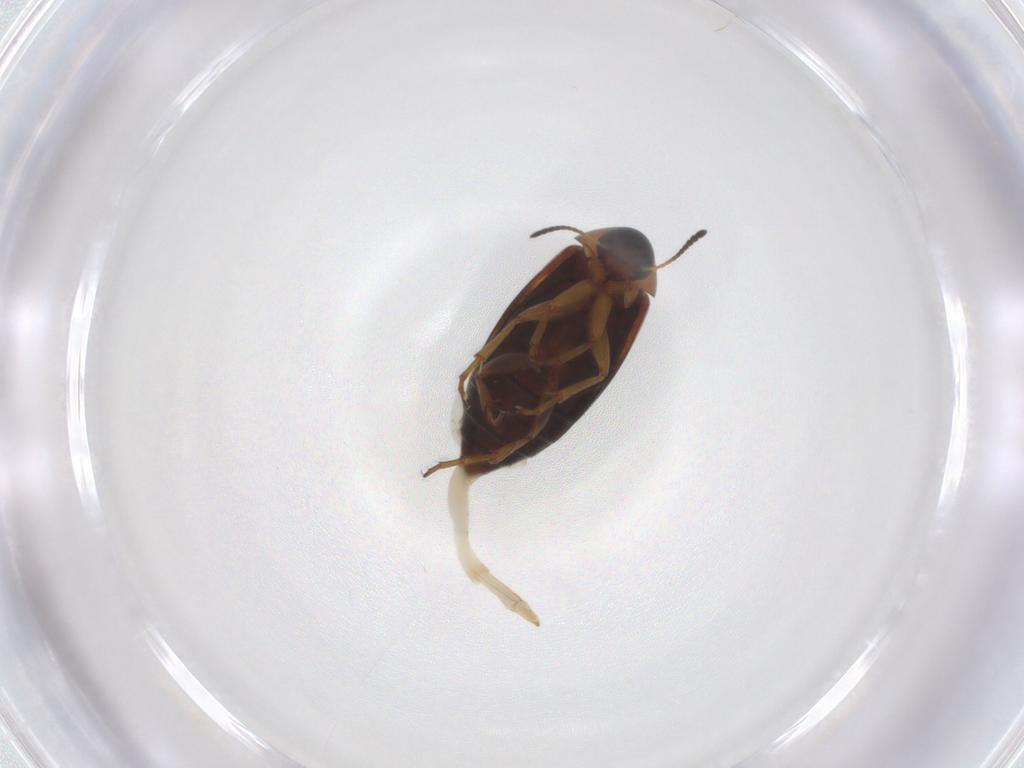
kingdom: Animalia
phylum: Arthropoda
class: Insecta
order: Coleoptera
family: Scraptiidae
